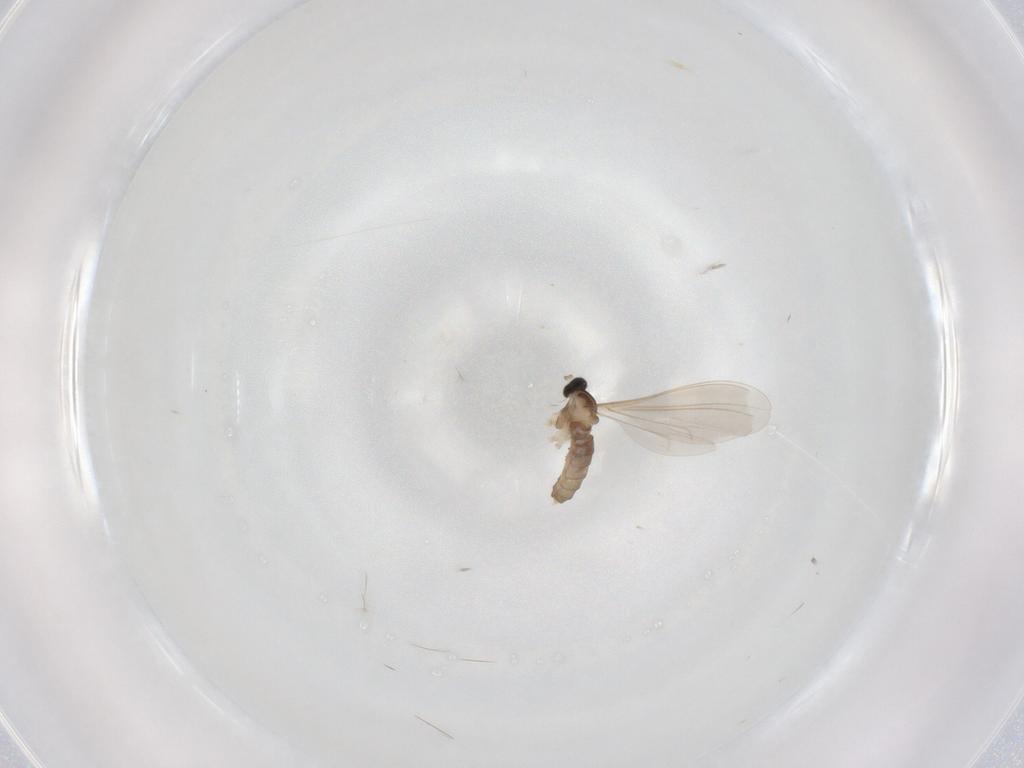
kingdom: Animalia
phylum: Arthropoda
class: Insecta
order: Diptera
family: Cecidomyiidae
